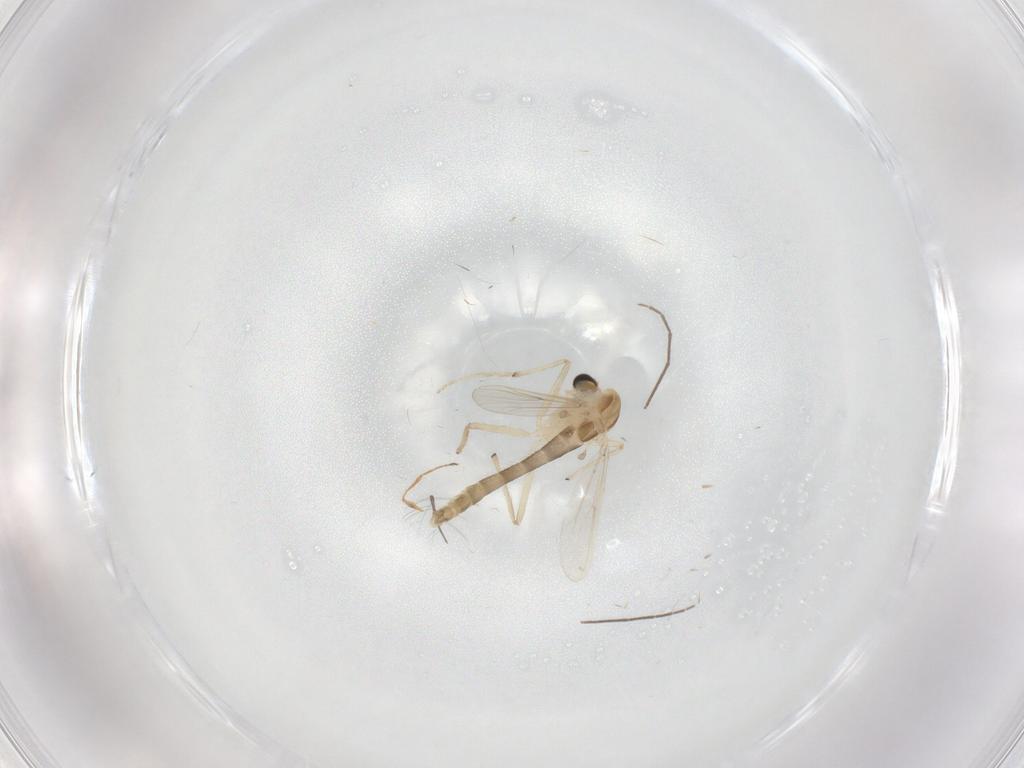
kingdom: Animalia
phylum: Arthropoda
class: Insecta
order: Diptera
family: Chironomidae
